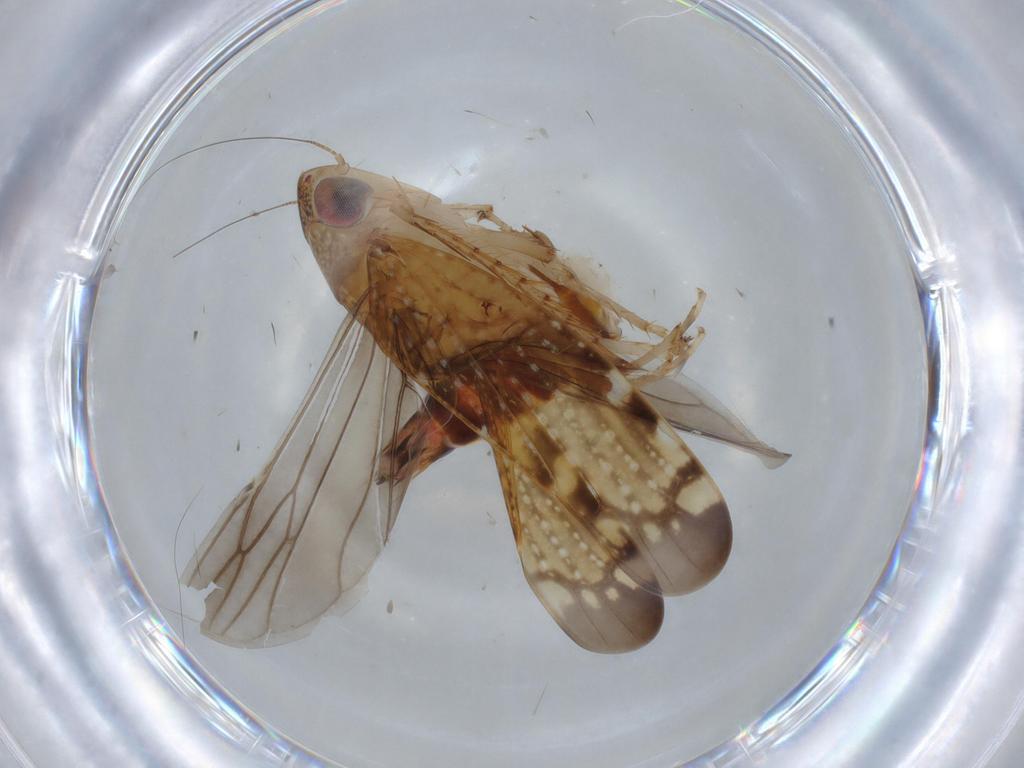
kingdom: Animalia
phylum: Arthropoda
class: Insecta
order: Hemiptera
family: Cicadellidae
